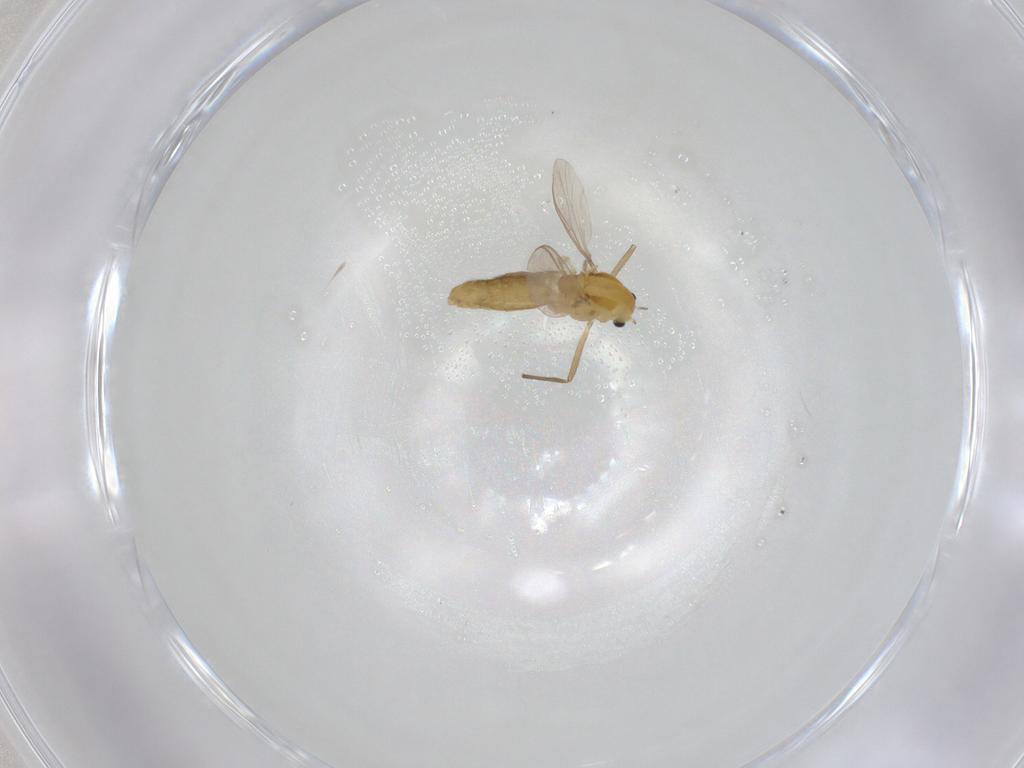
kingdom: Animalia
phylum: Arthropoda
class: Insecta
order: Diptera
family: Chironomidae
